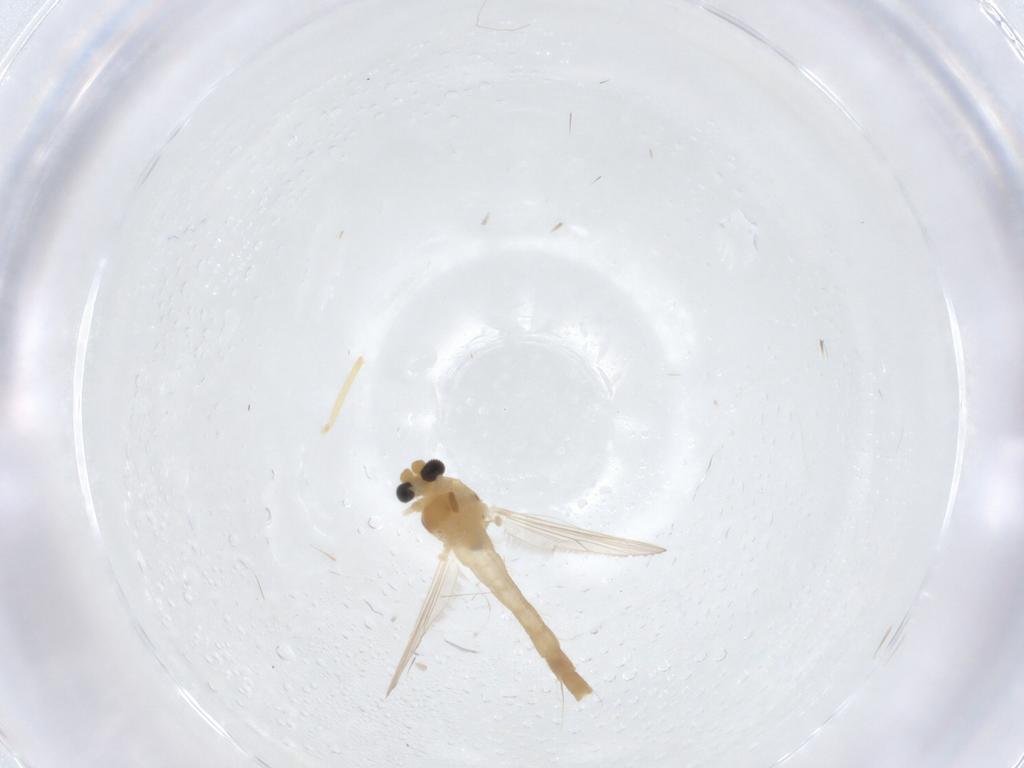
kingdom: Animalia
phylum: Arthropoda
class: Insecta
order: Diptera
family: Chironomidae
